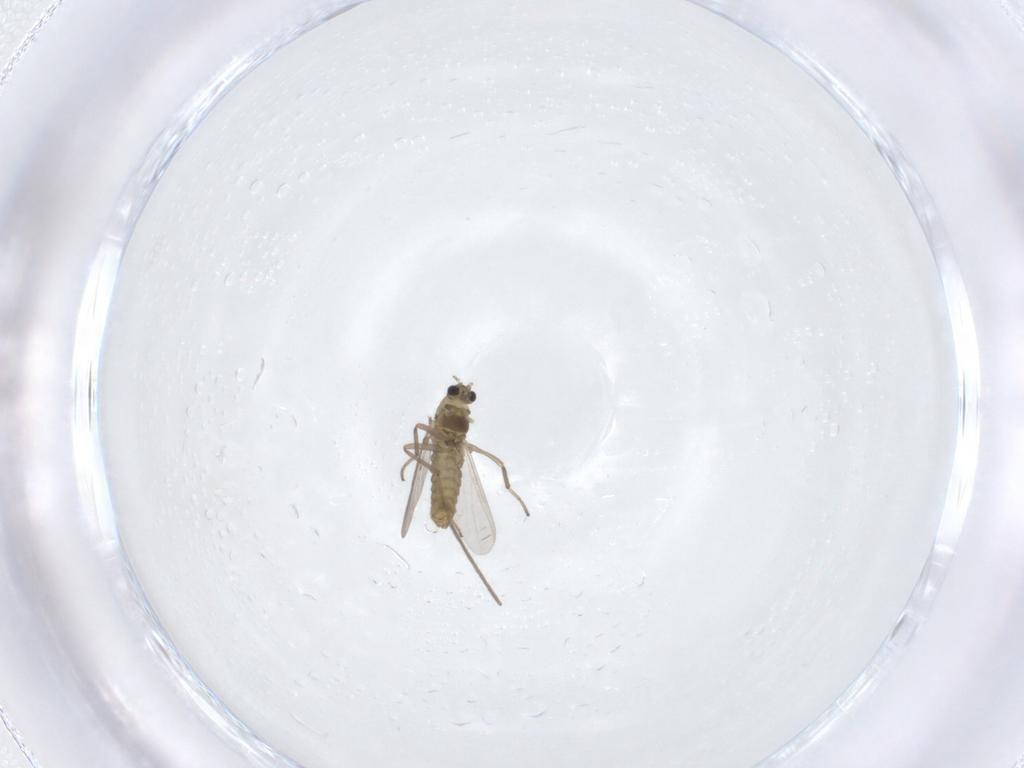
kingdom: Animalia
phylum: Arthropoda
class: Insecta
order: Diptera
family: Chironomidae
